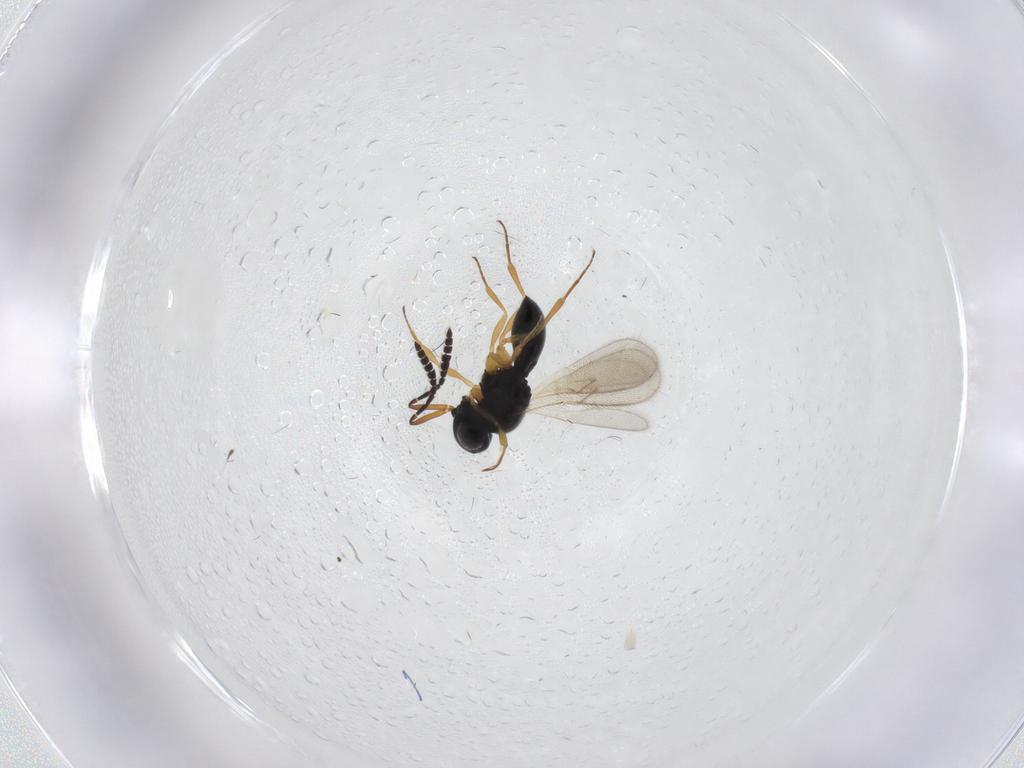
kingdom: Animalia
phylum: Arthropoda
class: Insecta
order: Hymenoptera
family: Scelionidae
